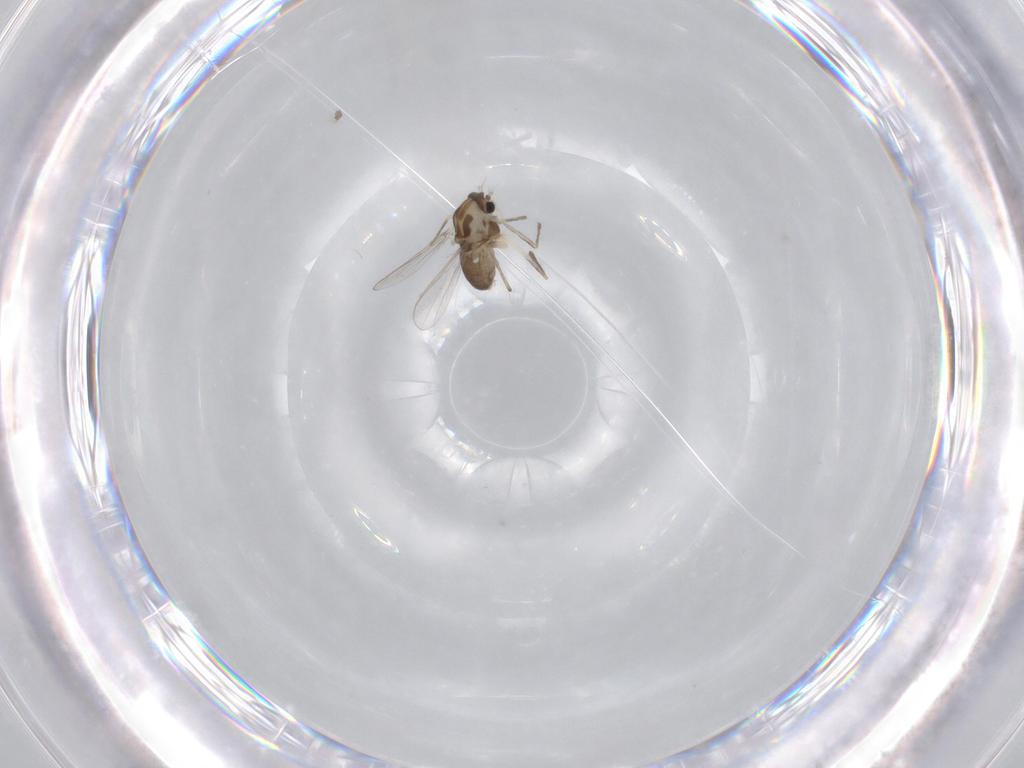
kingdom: Animalia
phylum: Arthropoda
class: Insecta
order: Diptera
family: Chironomidae
